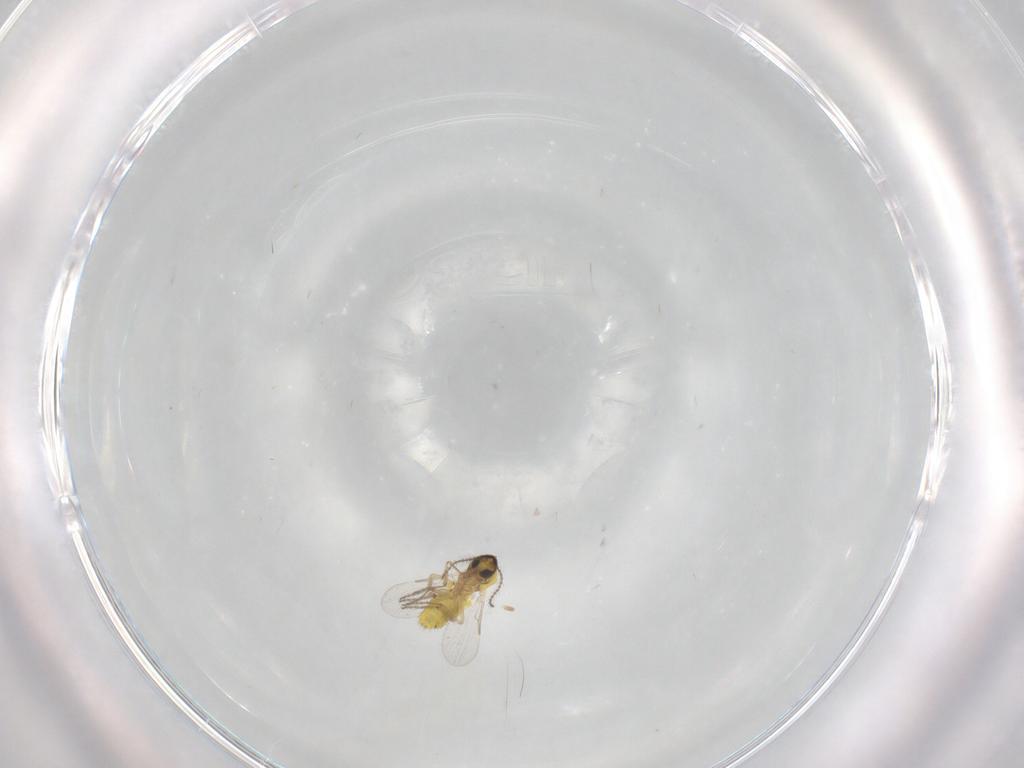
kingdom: Animalia
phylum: Arthropoda
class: Insecta
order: Diptera
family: Ceratopogonidae
